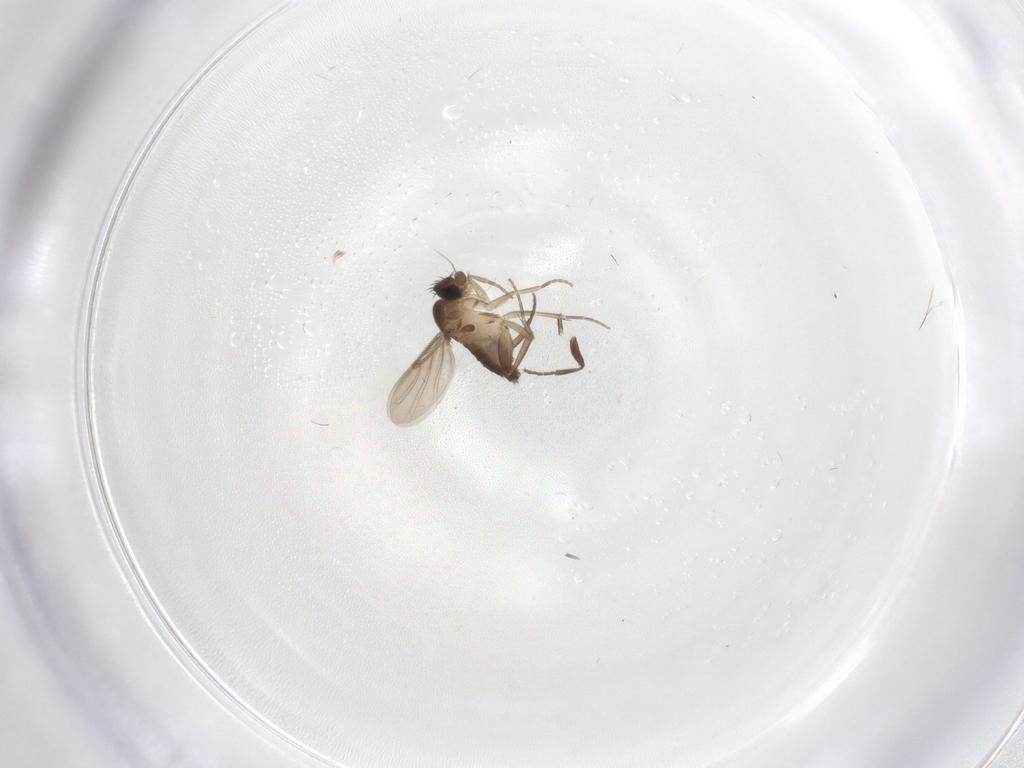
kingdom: Animalia
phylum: Arthropoda
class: Insecta
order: Diptera
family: Phoridae
